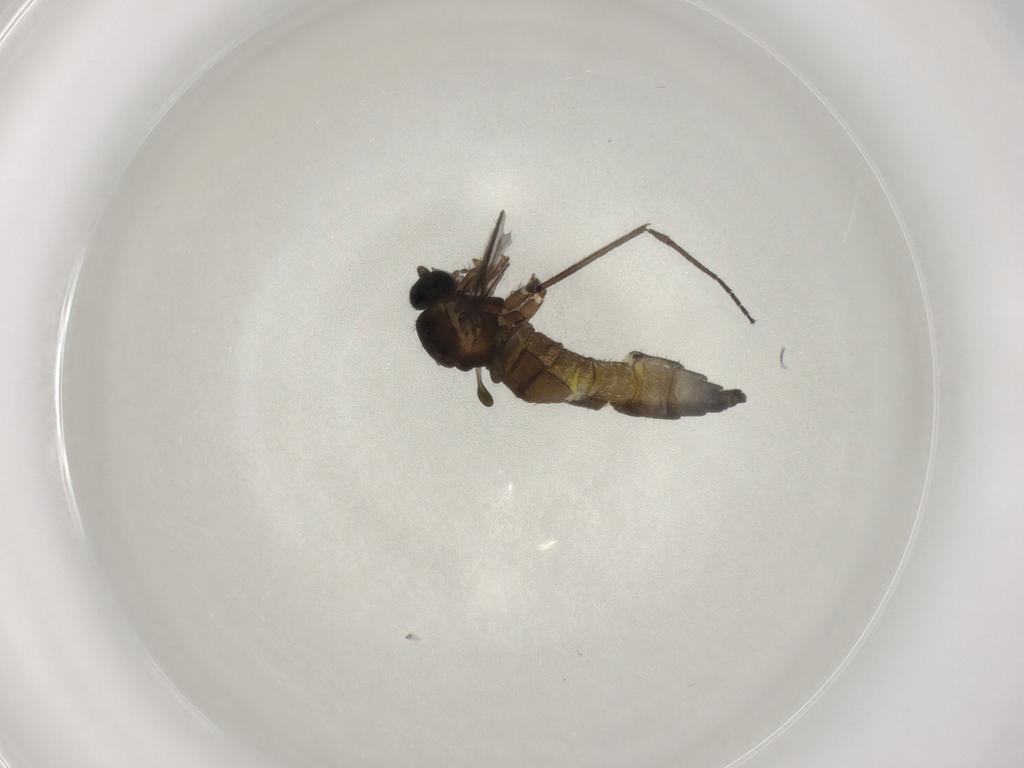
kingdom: Animalia
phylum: Arthropoda
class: Insecta
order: Diptera
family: Sciaridae
